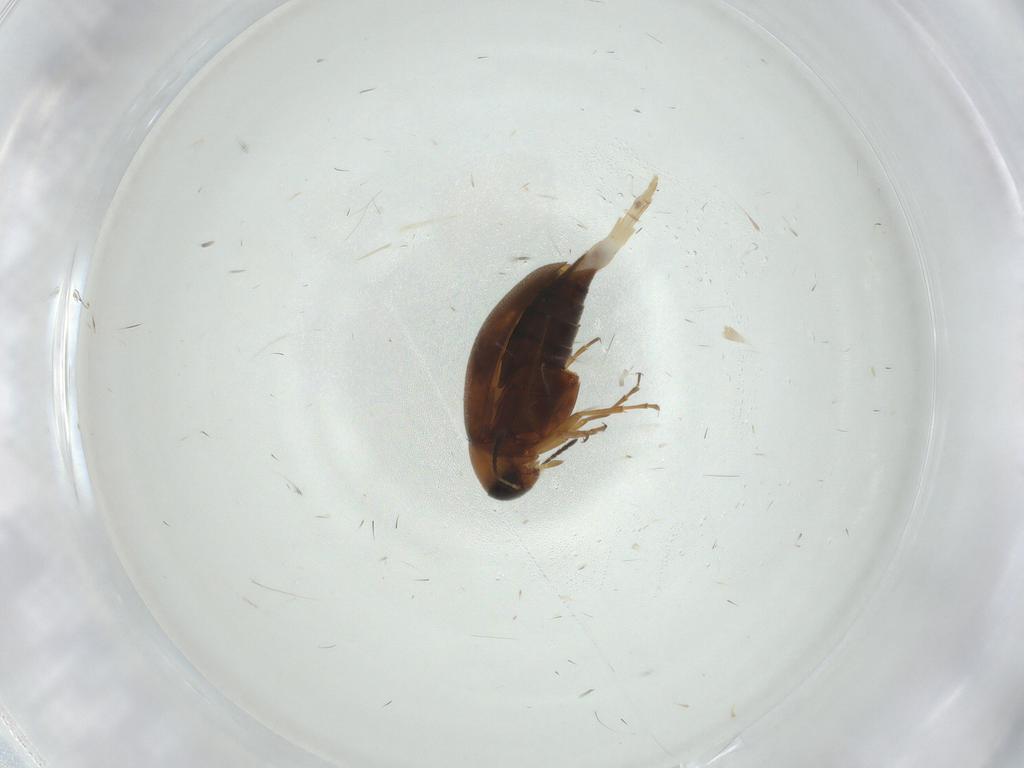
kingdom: Animalia
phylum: Arthropoda
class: Insecta
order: Coleoptera
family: Scraptiidae
